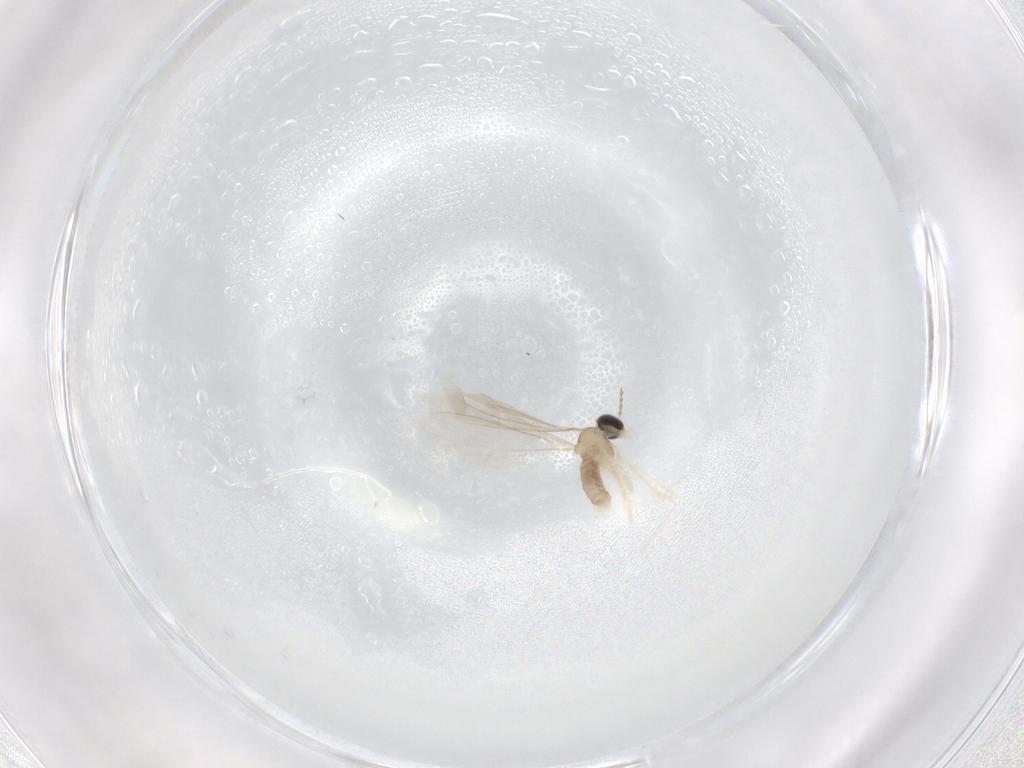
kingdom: Animalia
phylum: Arthropoda
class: Insecta
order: Diptera
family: Cecidomyiidae
